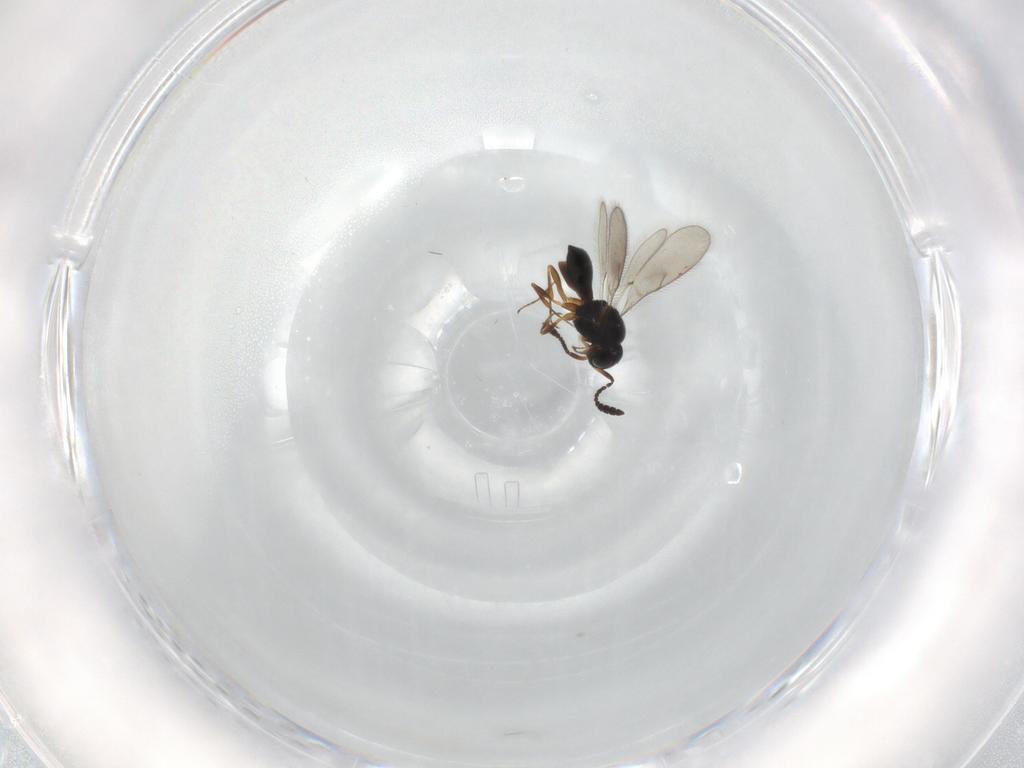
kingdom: Animalia
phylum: Arthropoda
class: Insecta
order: Hymenoptera
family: Scelionidae
